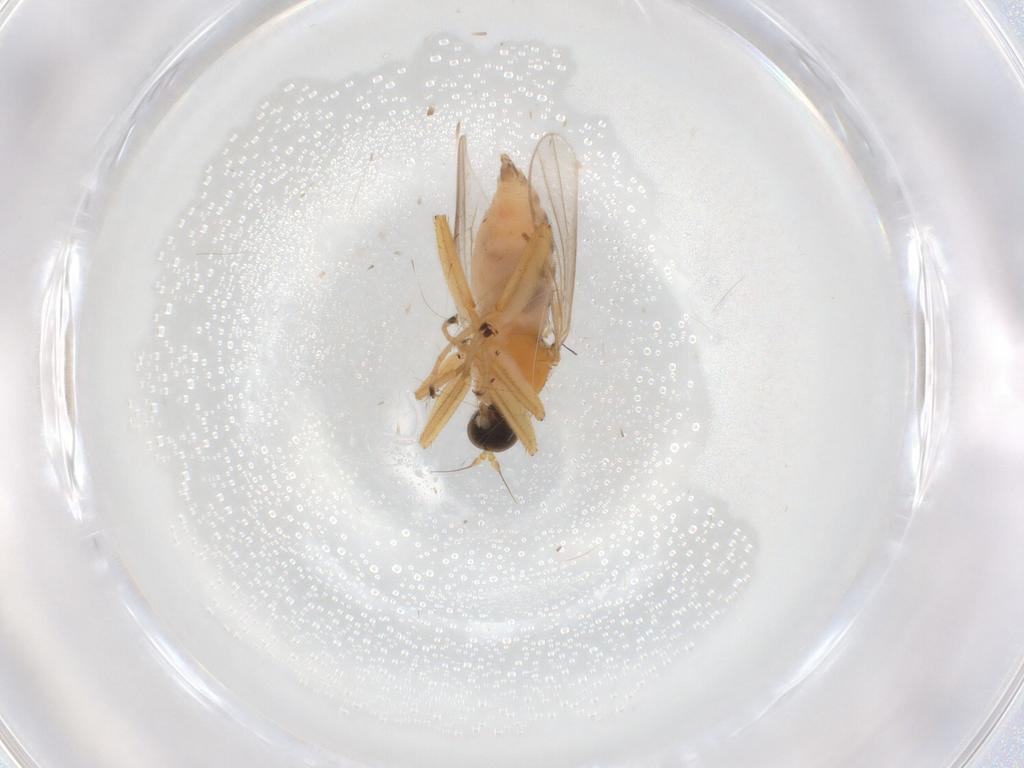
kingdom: Animalia
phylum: Arthropoda
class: Insecta
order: Diptera
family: Hybotidae
